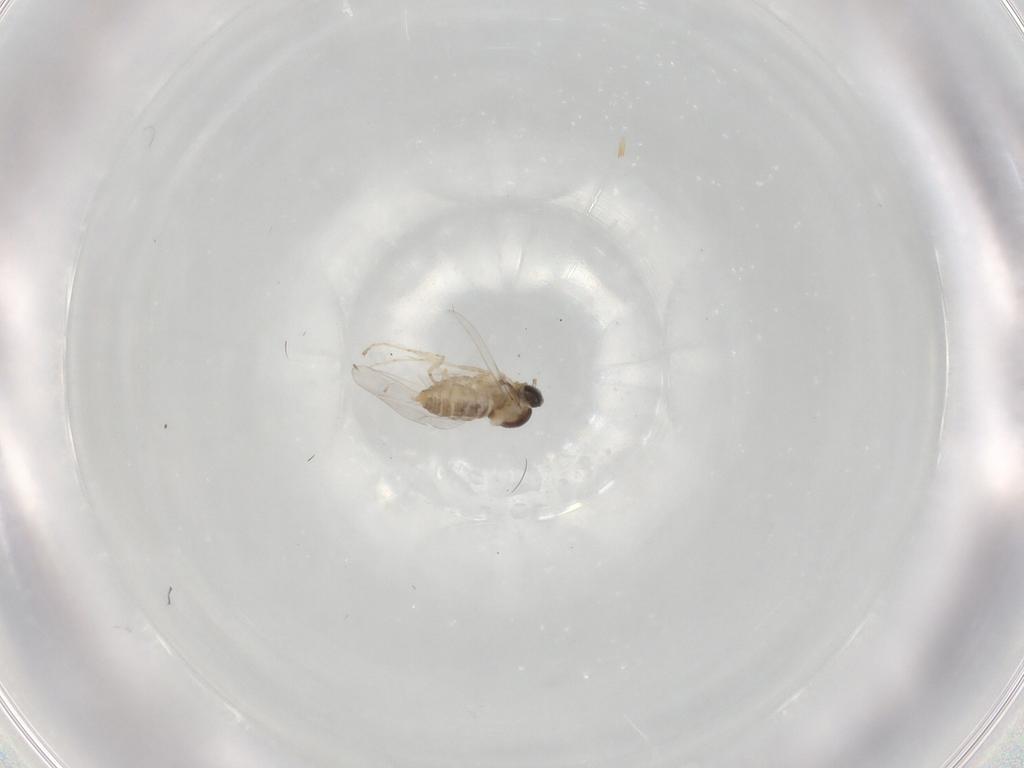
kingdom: Animalia
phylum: Arthropoda
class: Insecta
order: Diptera
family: Cecidomyiidae
